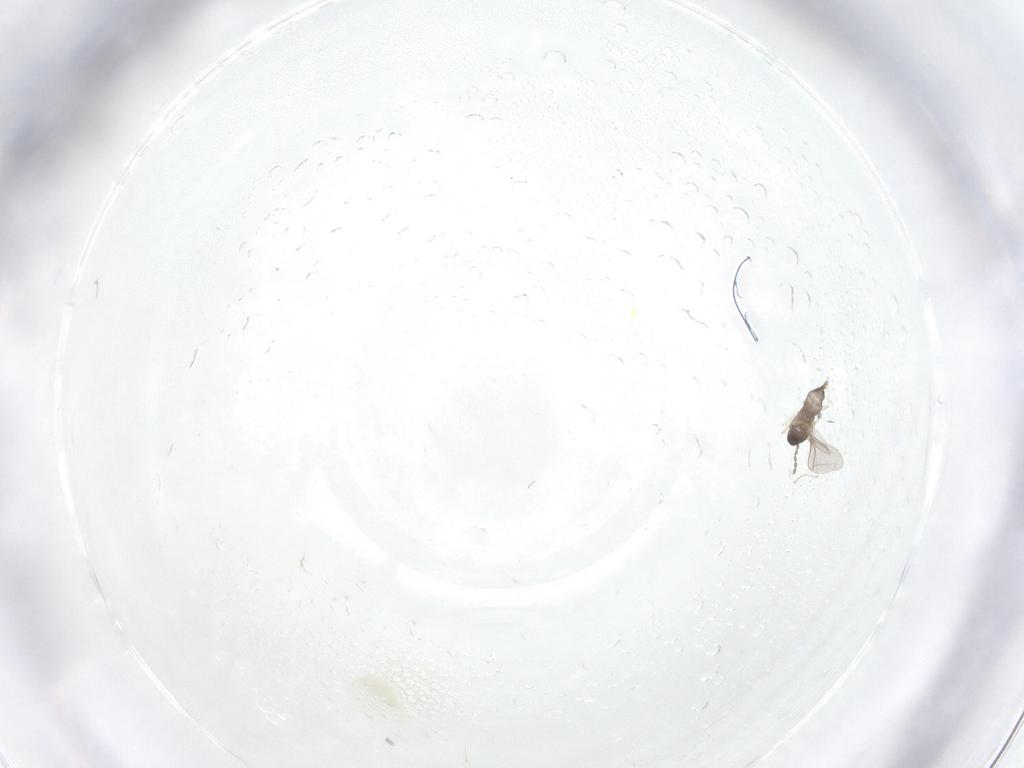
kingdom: Animalia
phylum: Arthropoda
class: Insecta
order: Diptera
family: Cecidomyiidae
